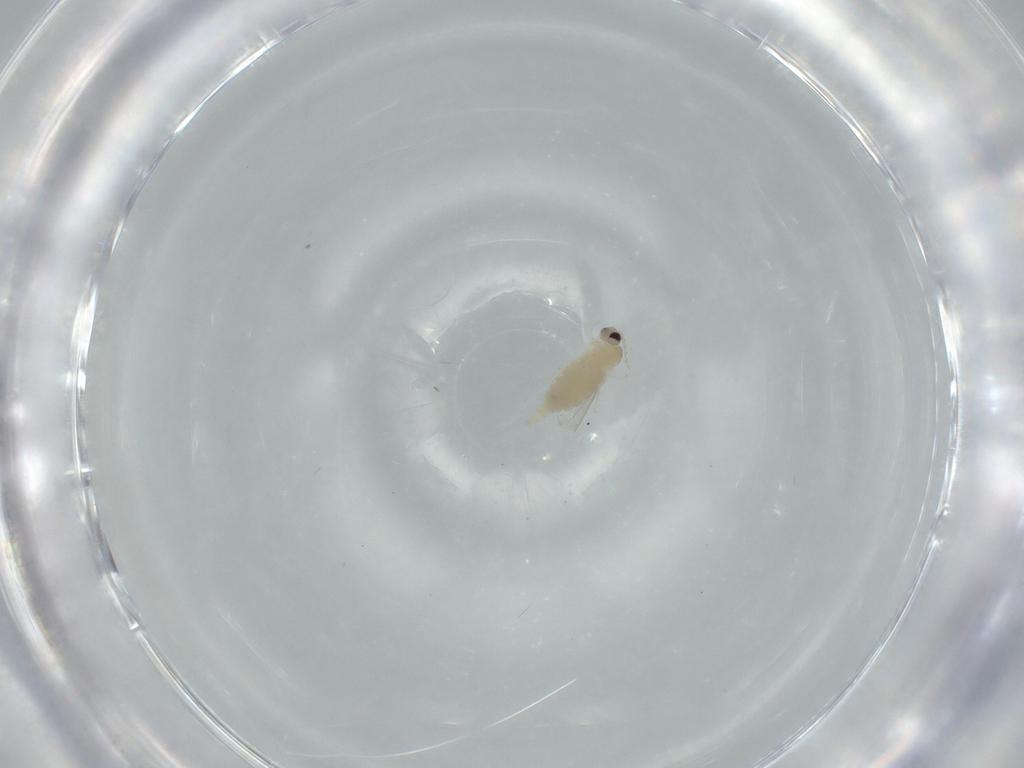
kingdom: Animalia
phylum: Arthropoda
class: Insecta
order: Diptera
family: Cecidomyiidae
